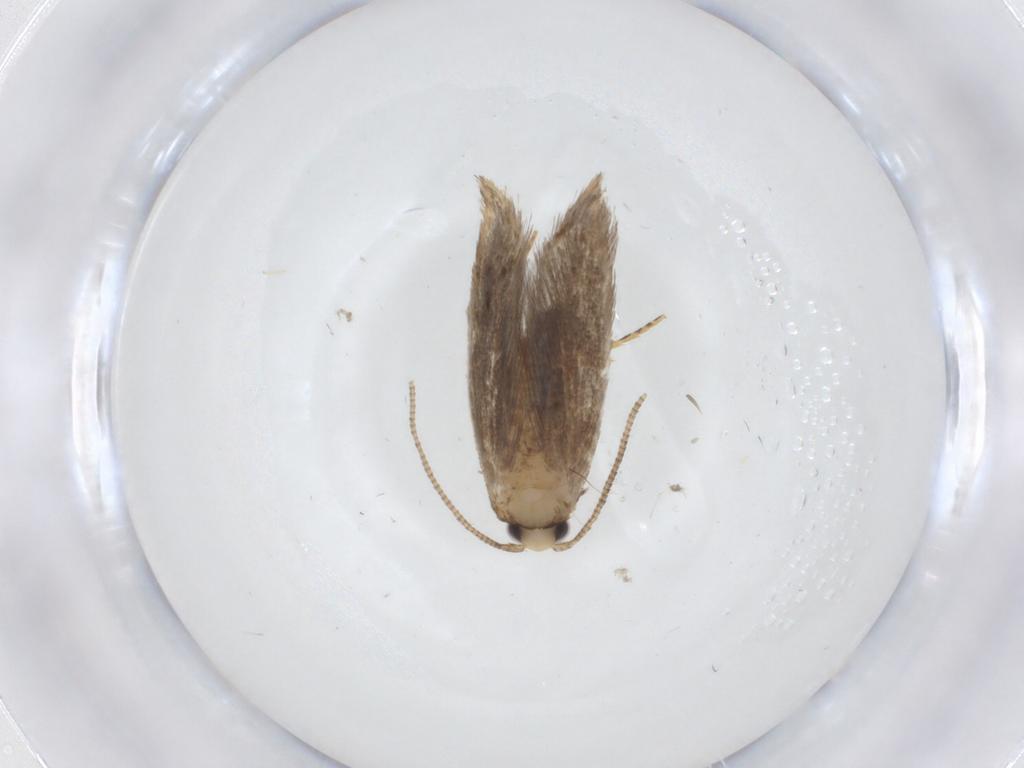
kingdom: Animalia
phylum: Arthropoda
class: Insecta
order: Lepidoptera
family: Tineidae
